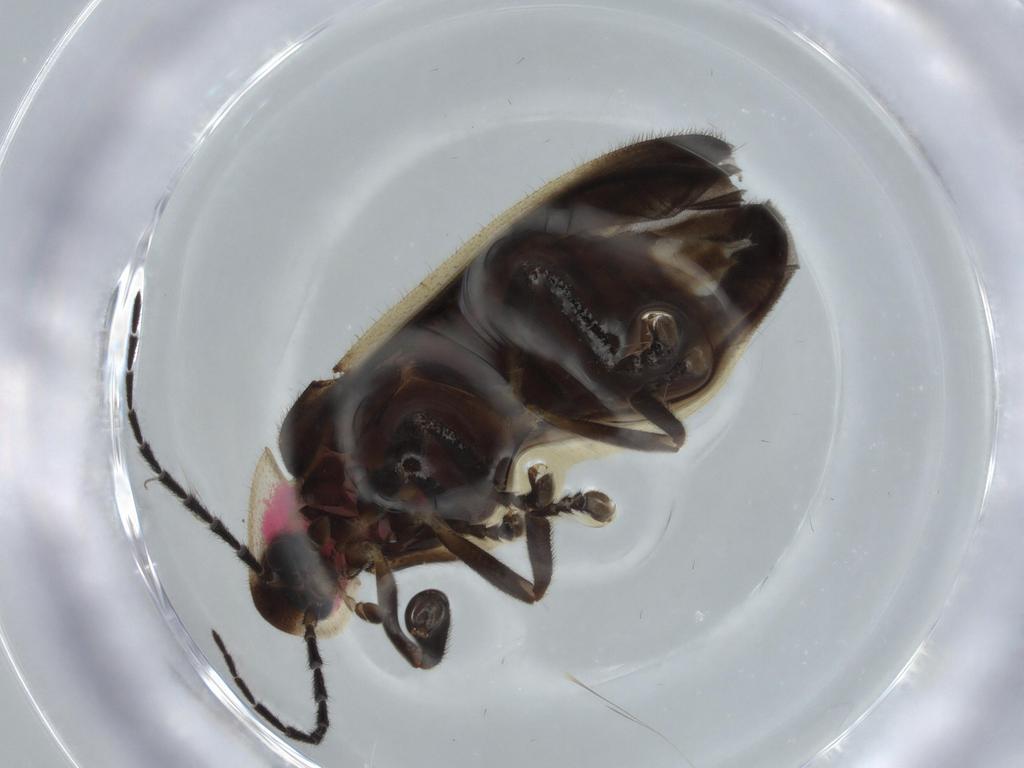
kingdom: Animalia
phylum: Arthropoda
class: Insecta
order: Coleoptera
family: Lampyridae
